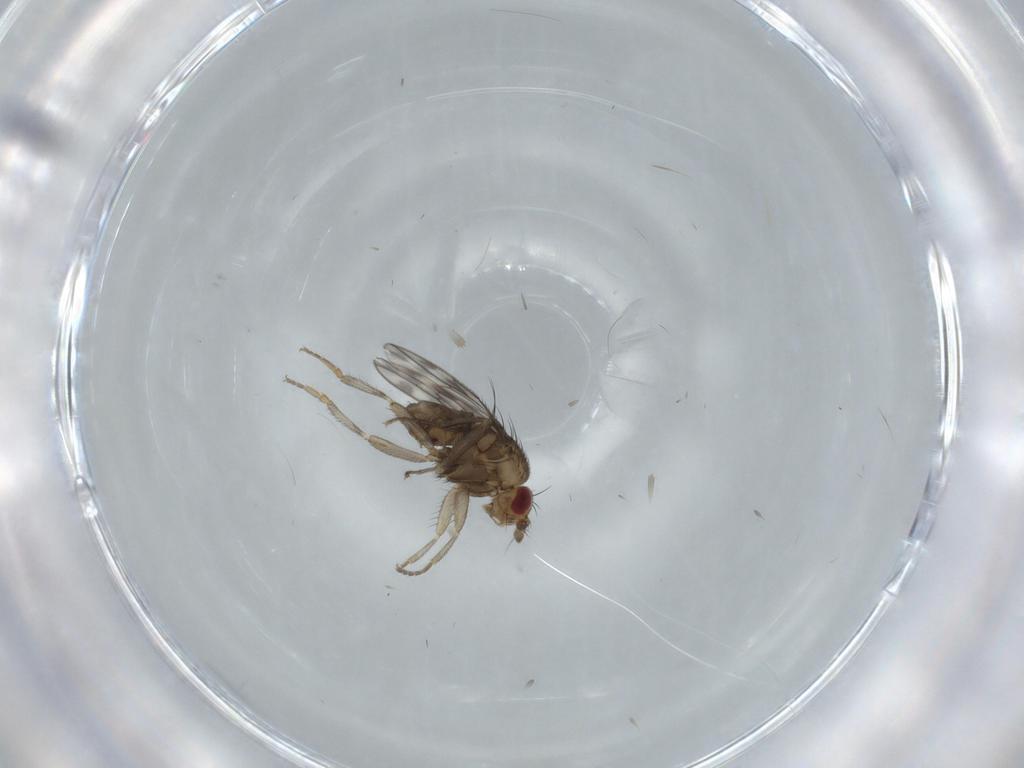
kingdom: Animalia
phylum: Arthropoda
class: Insecta
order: Diptera
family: Sphaeroceridae
